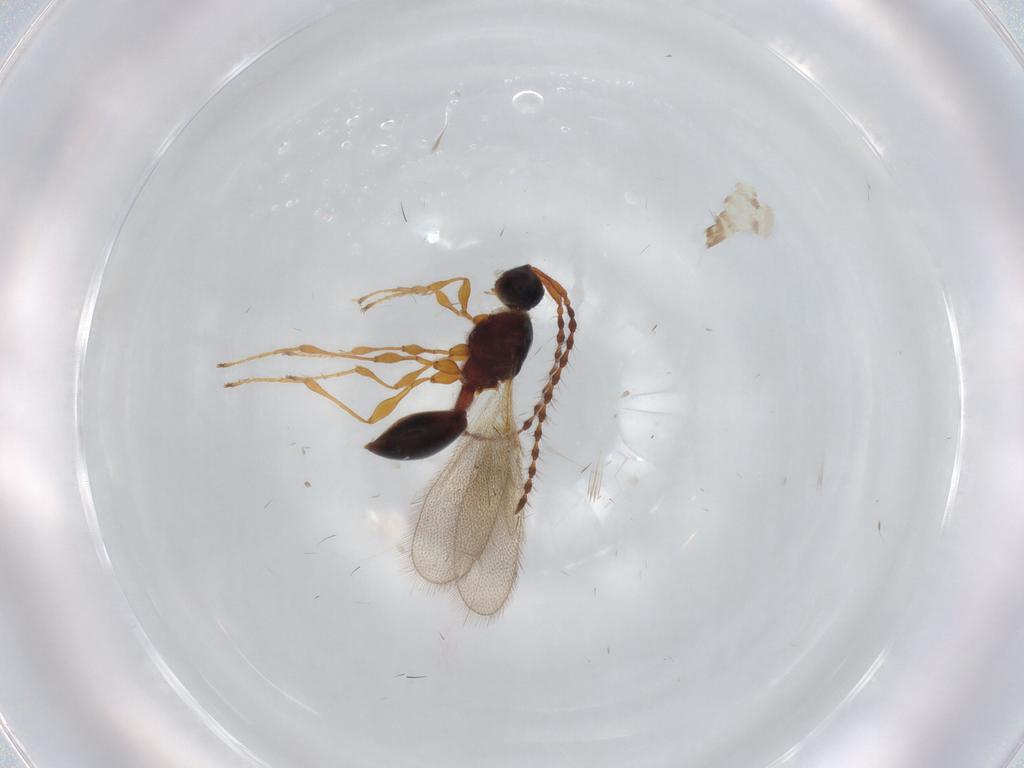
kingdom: Animalia
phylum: Arthropoda
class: Insecta
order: Hymenoptera
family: Diapriidae
